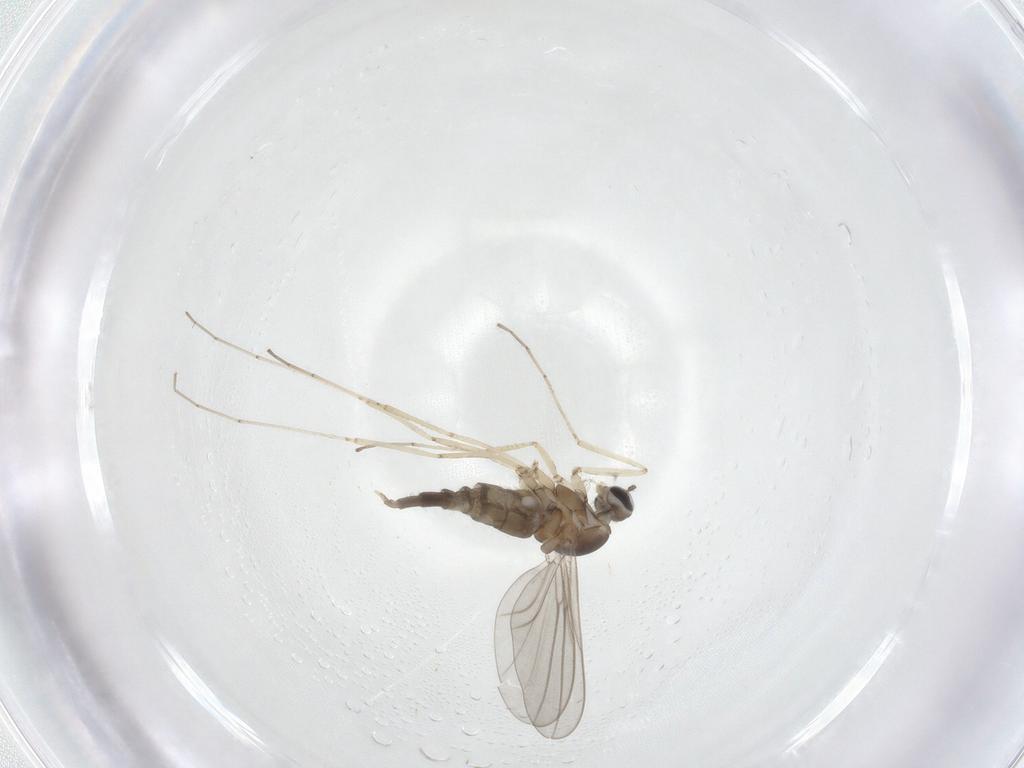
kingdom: Animalia
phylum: Arthropoda
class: Insecta
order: Diptera
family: Cecidomyiidae
